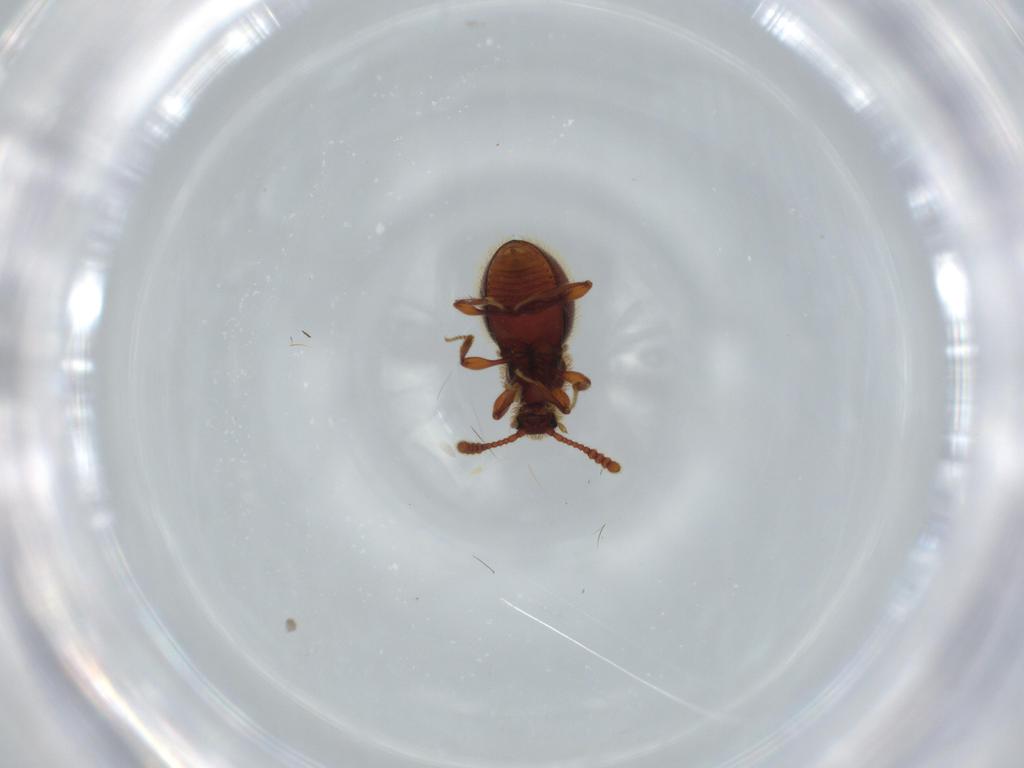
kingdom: Animalia
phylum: Arthropoda
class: Insecta
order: Coleoptera
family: Staphylinidae
